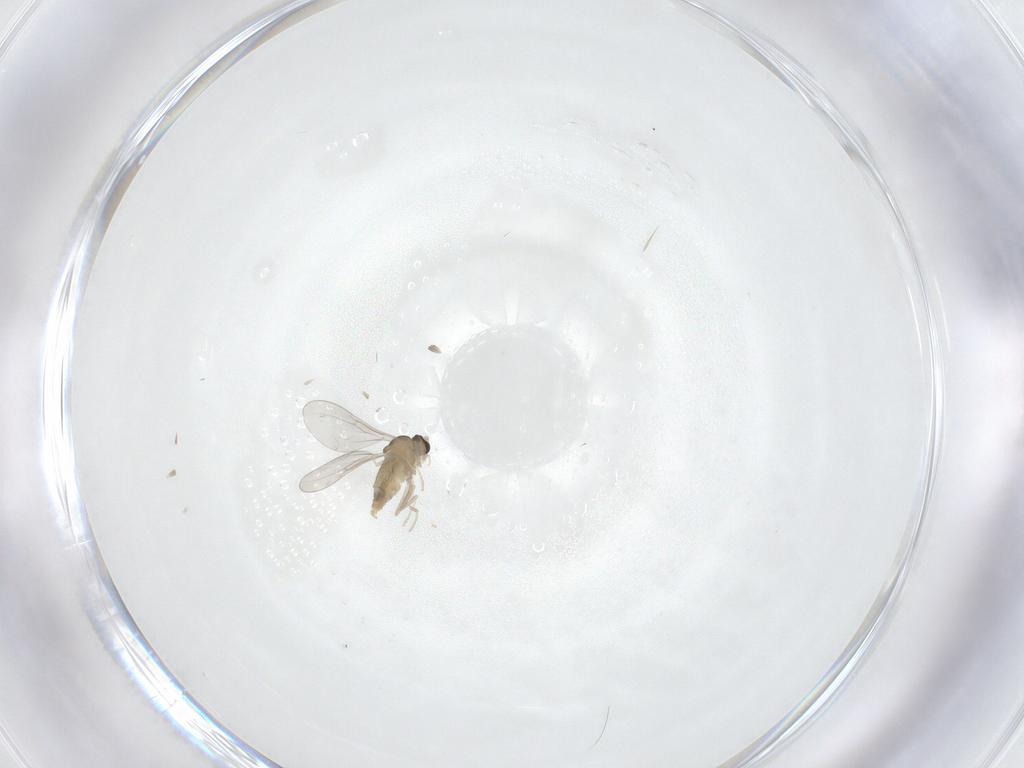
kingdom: Animalia
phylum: Arthropoda
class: Insecta
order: Diptera
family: Cecidomyiidae
